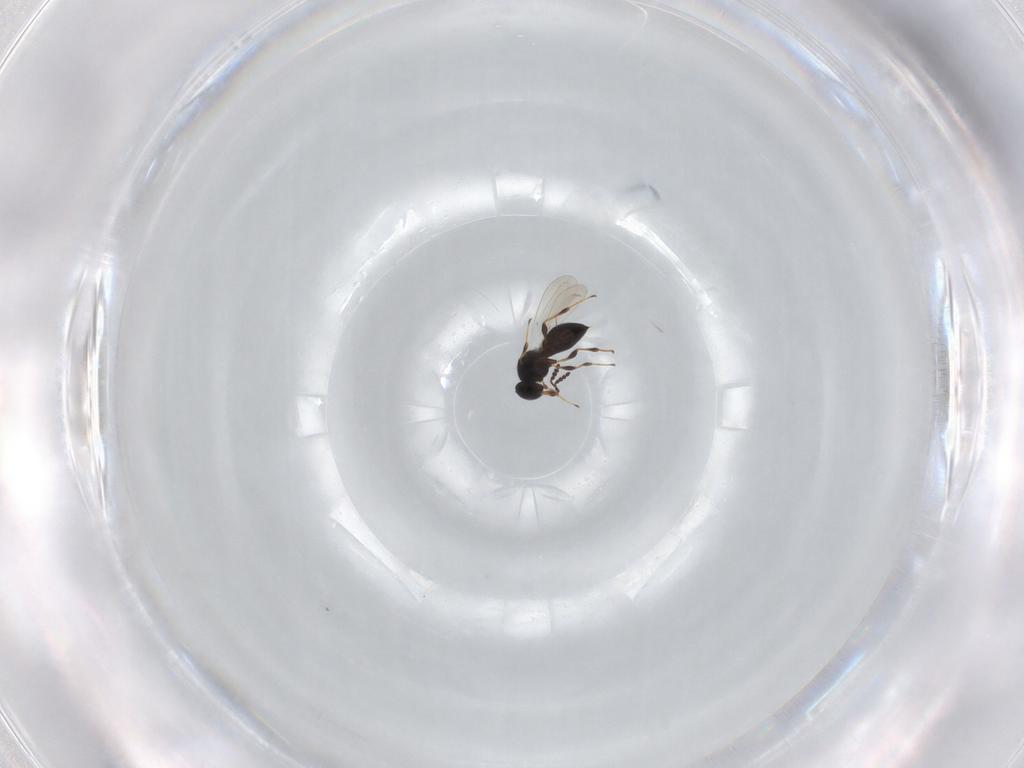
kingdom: Animalia
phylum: Arthropoda
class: Insecta
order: Hymenoptera
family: Platygastridae
